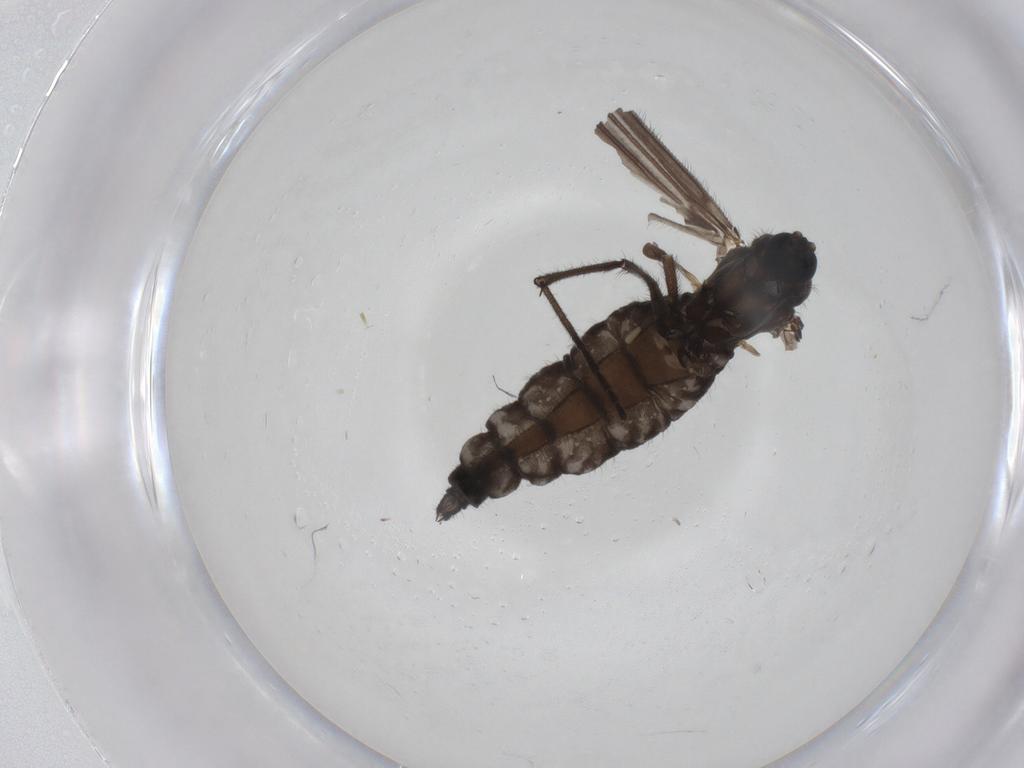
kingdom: Animalia
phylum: Arthropoda
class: Insecta
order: Diptera
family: Sciaridae
